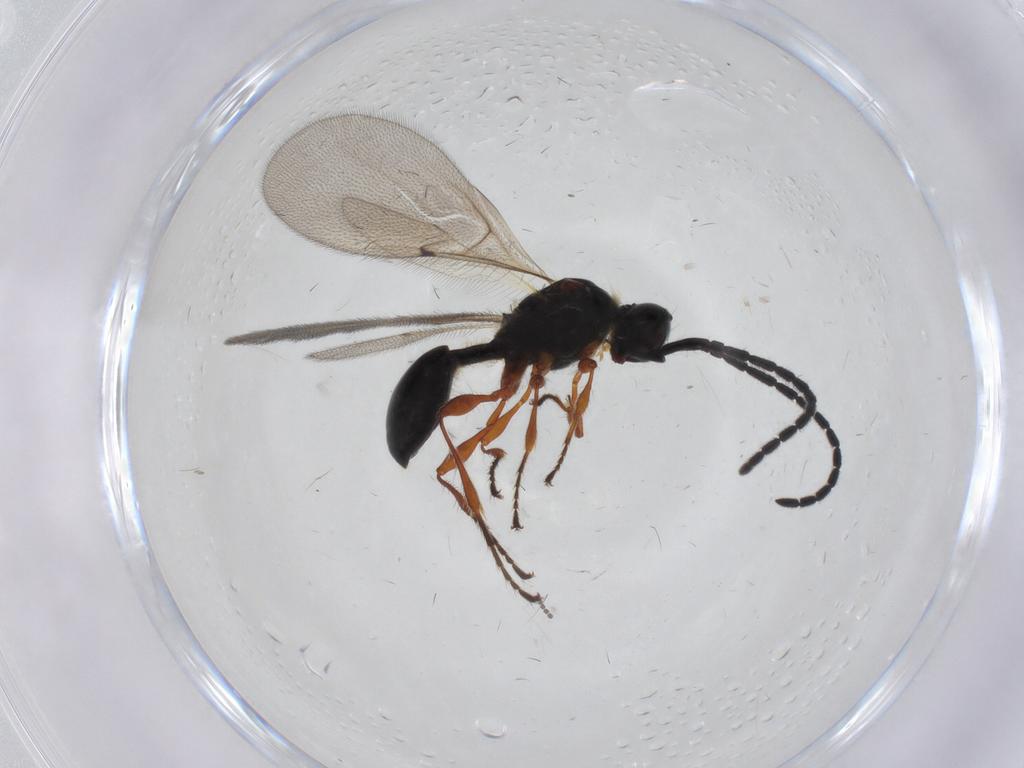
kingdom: Animalia
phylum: Arthropoda
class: Insecta
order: Hymenoptera
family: Diapriidae
